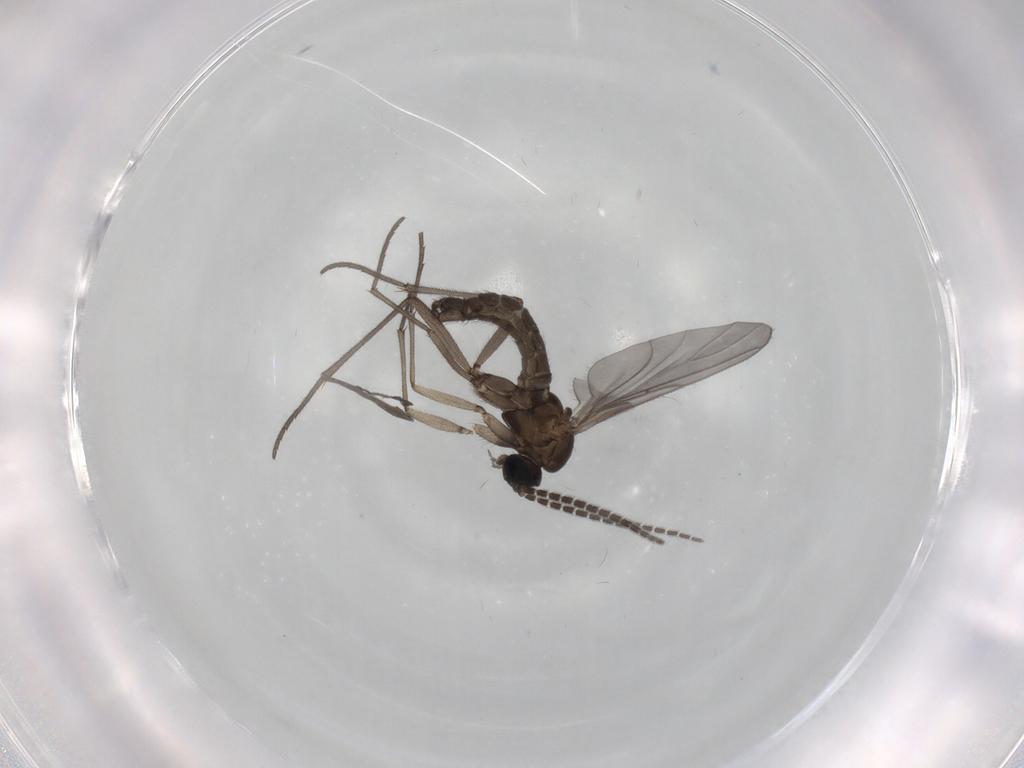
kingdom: Animalia
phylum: Arthropoda
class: Insecta
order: Diptera
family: Sciaridae
